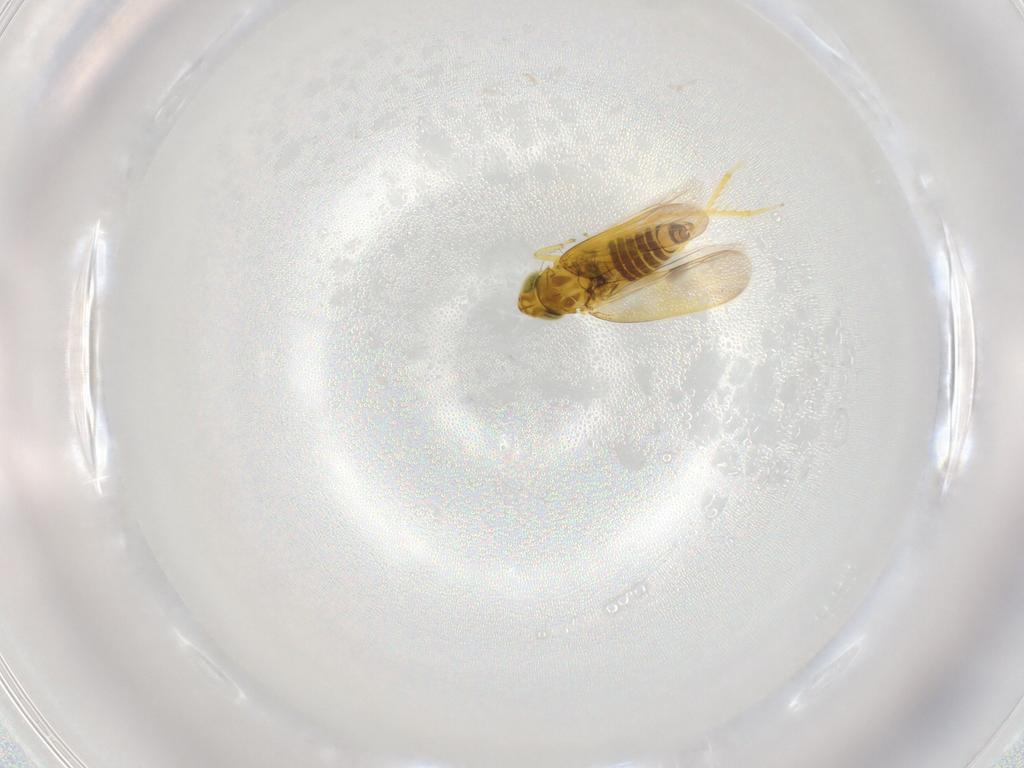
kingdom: Animalia
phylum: Arthropoda
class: Insecta
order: Hemiptera
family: Cicadellidae
